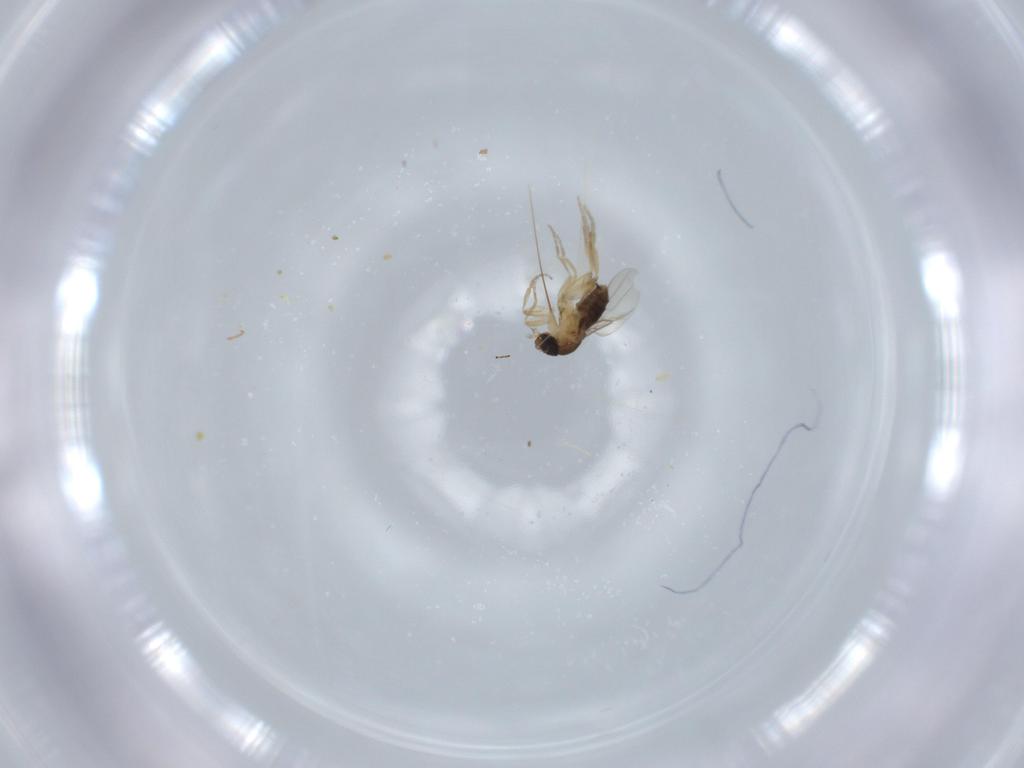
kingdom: Animalia
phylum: Arthropoda
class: Insecta
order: Diptera
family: Phoridae
